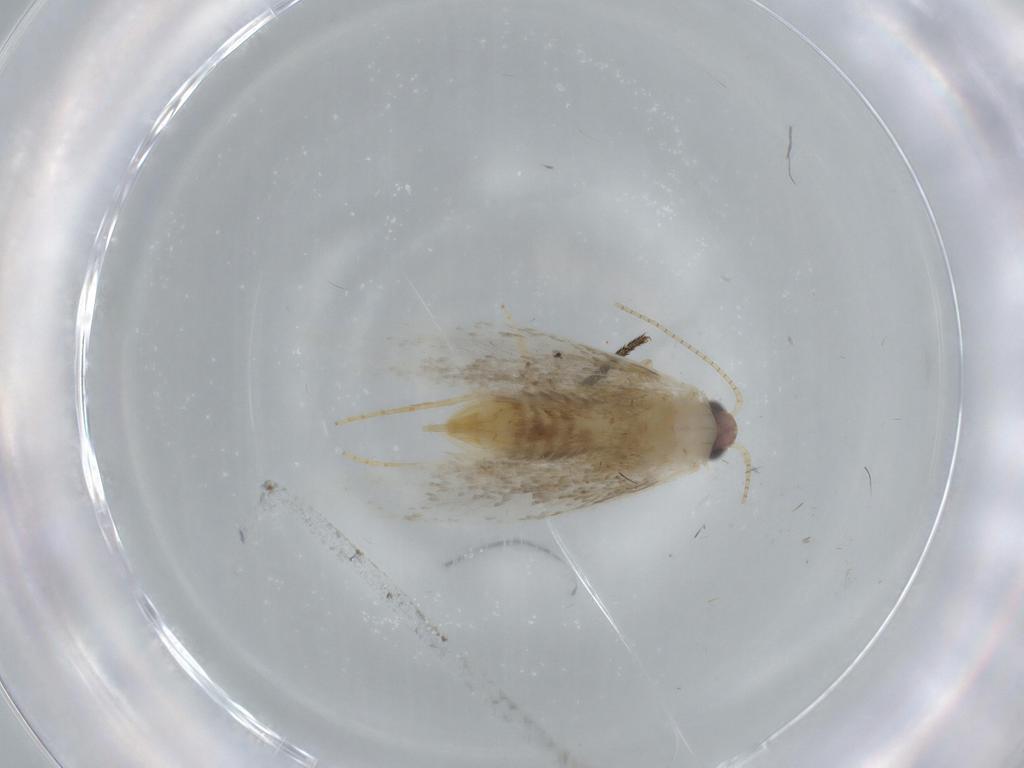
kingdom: Animalia
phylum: Arthropoda
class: Insecta
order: Lepidoptera
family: Tineidae
